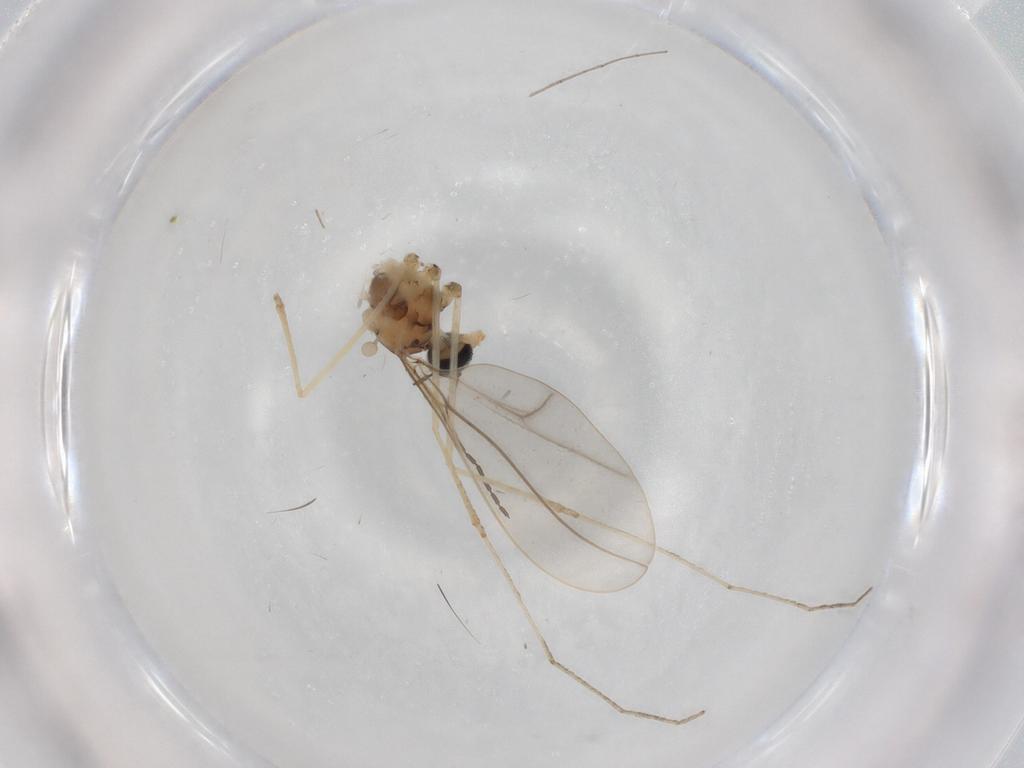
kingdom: Animalia
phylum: Arthropoda
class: Insecta
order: Diptera
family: Cecidomyiidae
